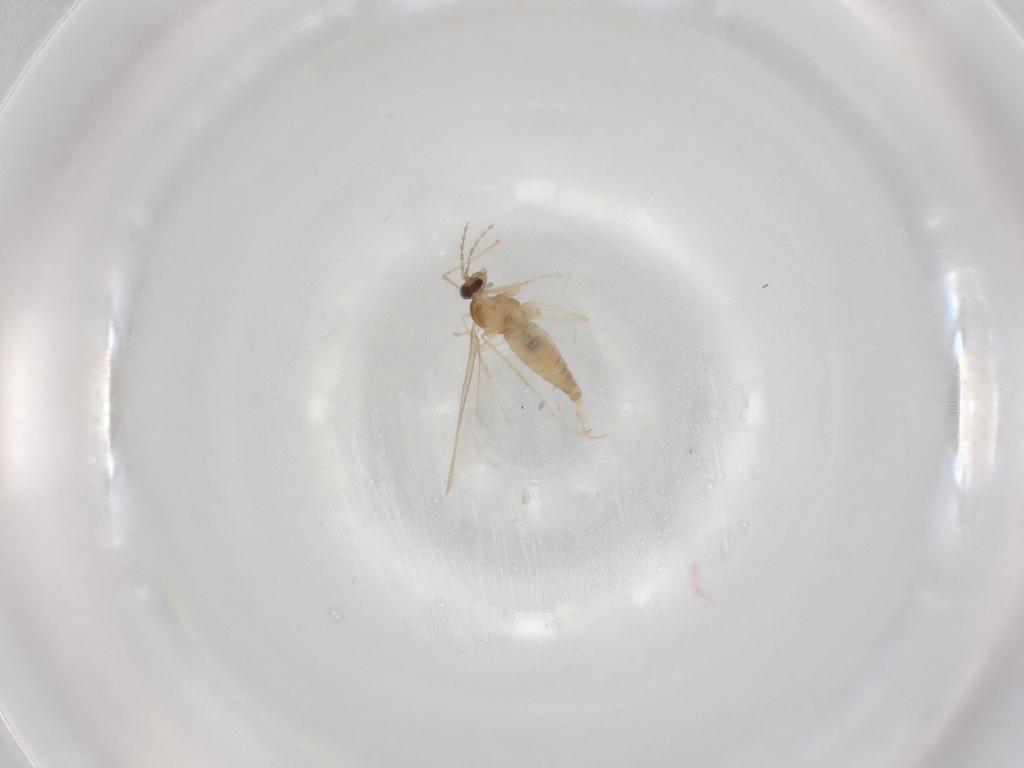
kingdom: Animalia
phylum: Arthropoda
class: Insecta
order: Diptera
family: Cecidomyiidae
